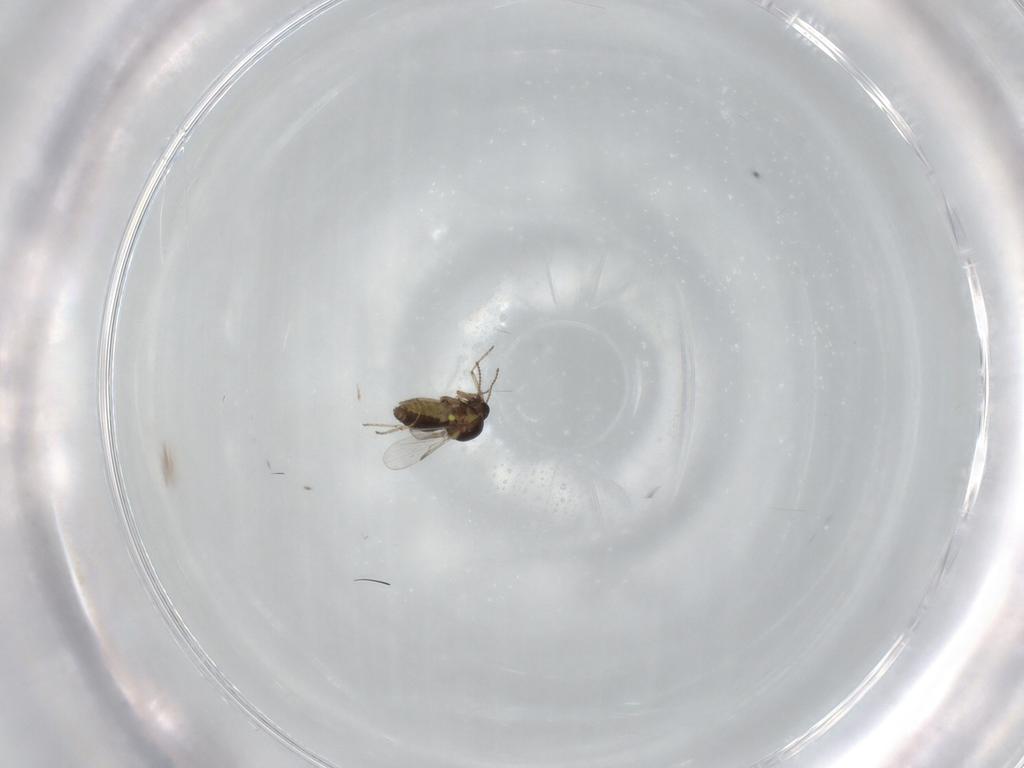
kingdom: Animalia
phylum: Arthropoda
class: Insecta
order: Diptera
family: Ceratopogonidae
